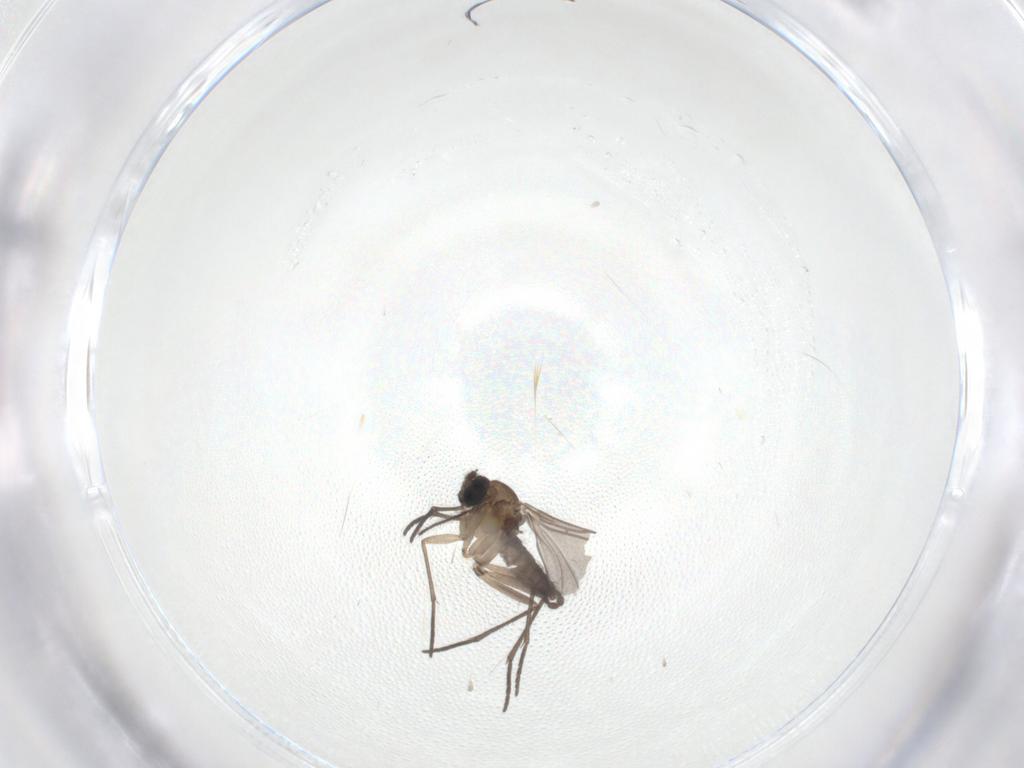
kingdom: Animalia
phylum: Arthropoda
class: Insecta
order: Diptera
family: Sciaridae
